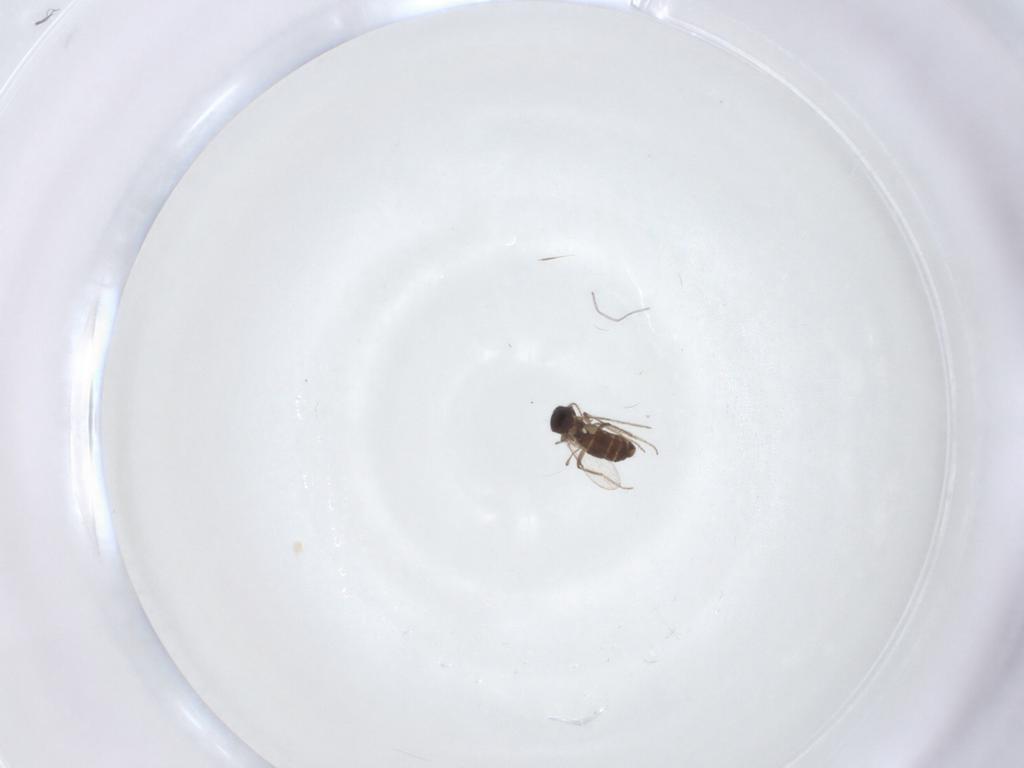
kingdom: Animalia
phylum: Arthropoda
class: Insecta
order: Diptera
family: Ceratopogonidae
